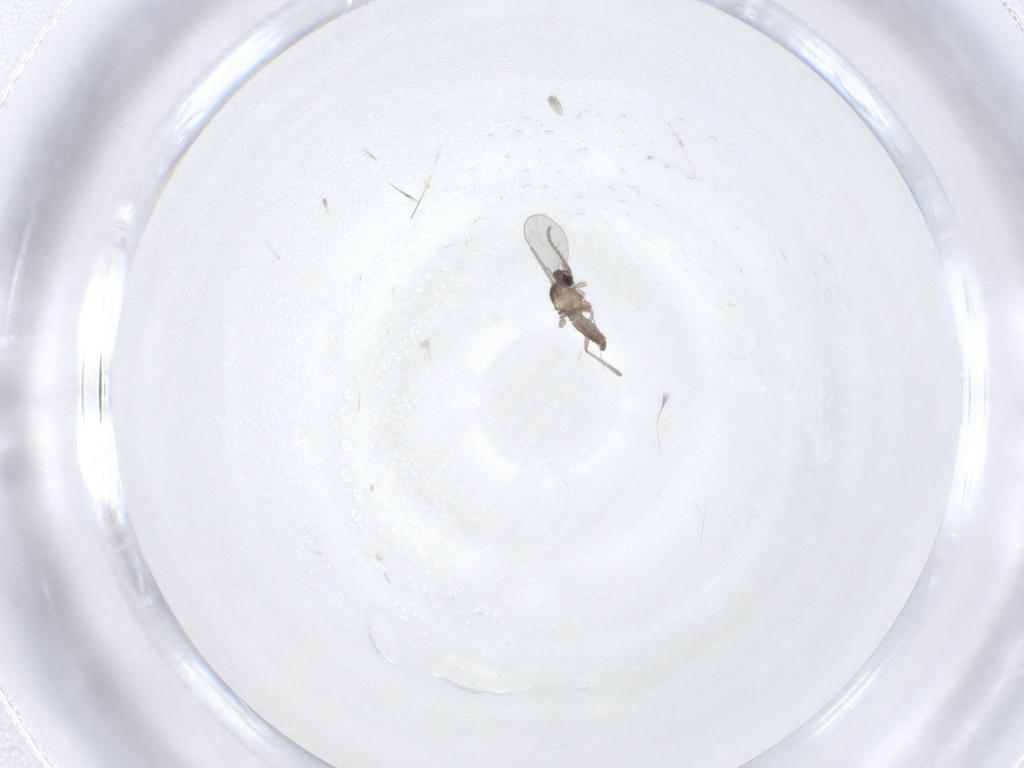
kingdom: Animalia
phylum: Arthropoda
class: Insecta
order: Diptera
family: Cecidomyiidae
